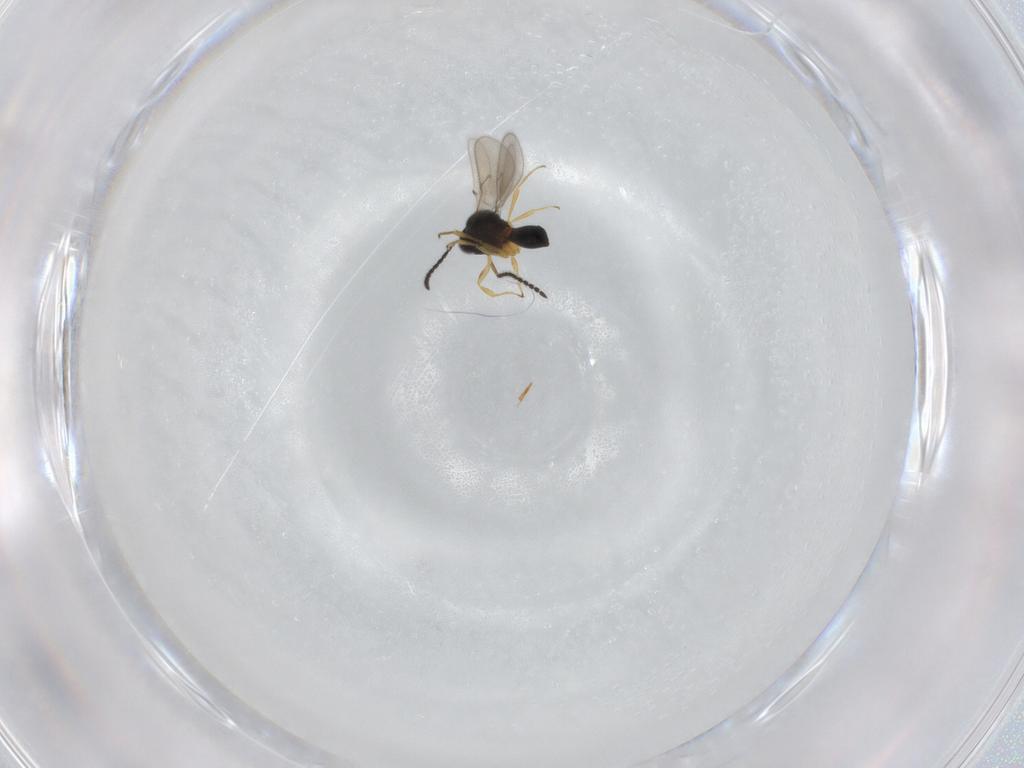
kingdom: Animalia
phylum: Arthropoda
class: Insecta
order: Hymenoptera
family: Scelionidae
